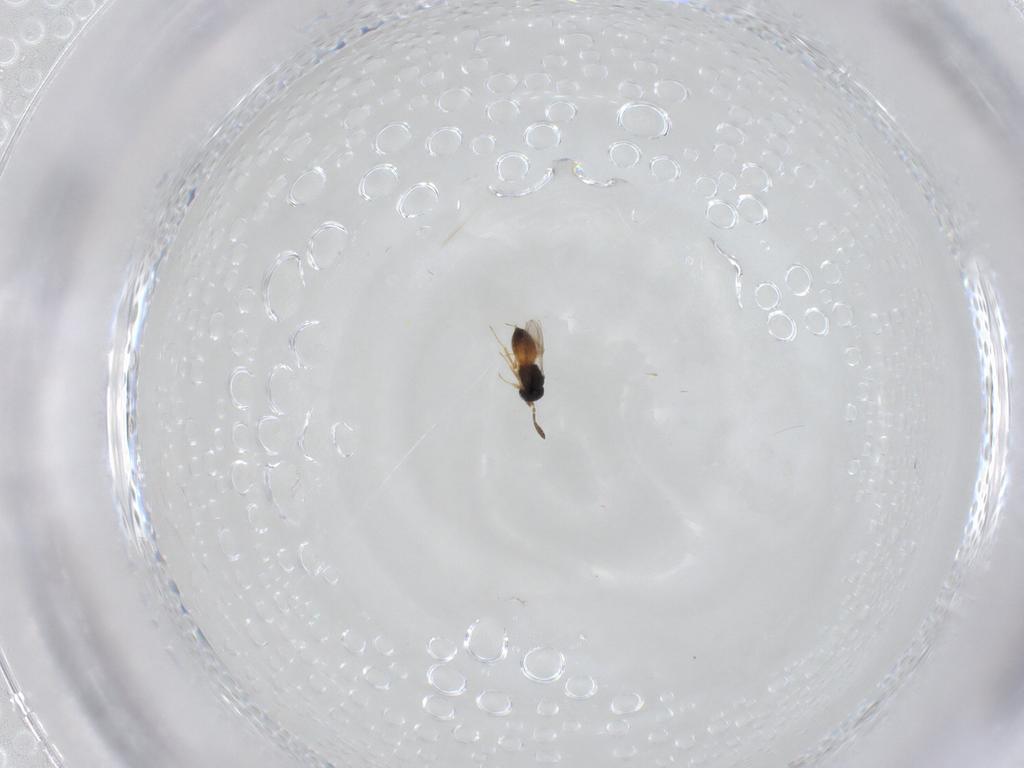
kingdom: Animalia
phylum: Arthropoda
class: Insecta
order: Hymenoptera
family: Scelionidae
